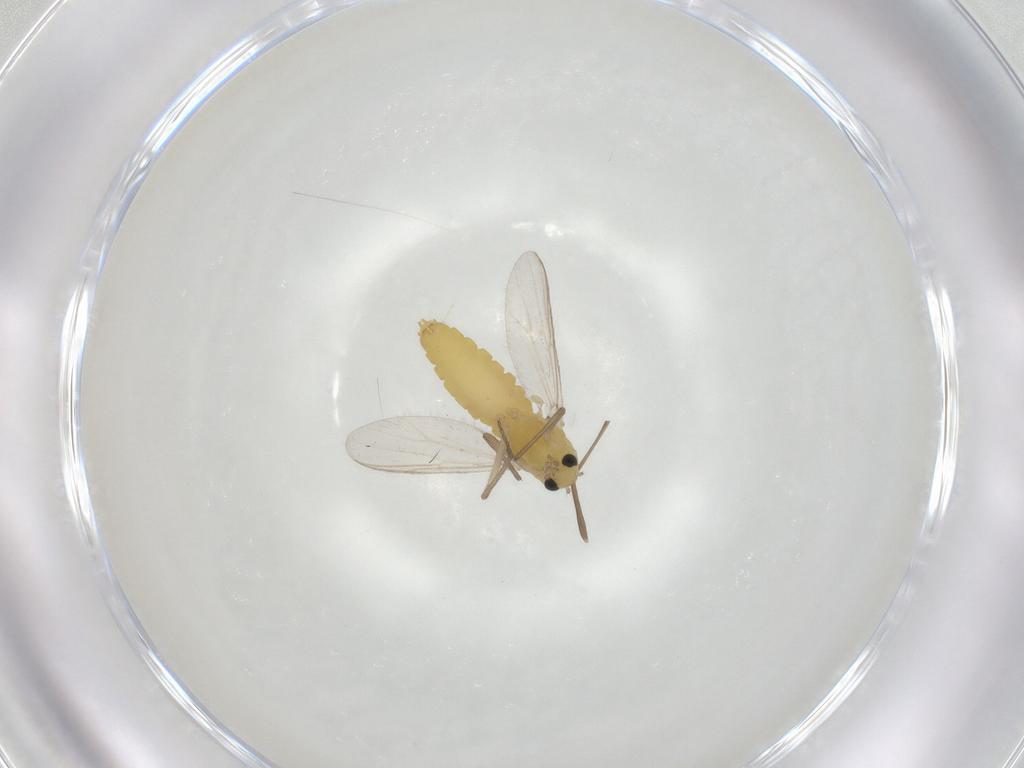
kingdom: Animalia
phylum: Arthropoda
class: Insecta
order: Diptera
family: Chironomidae
